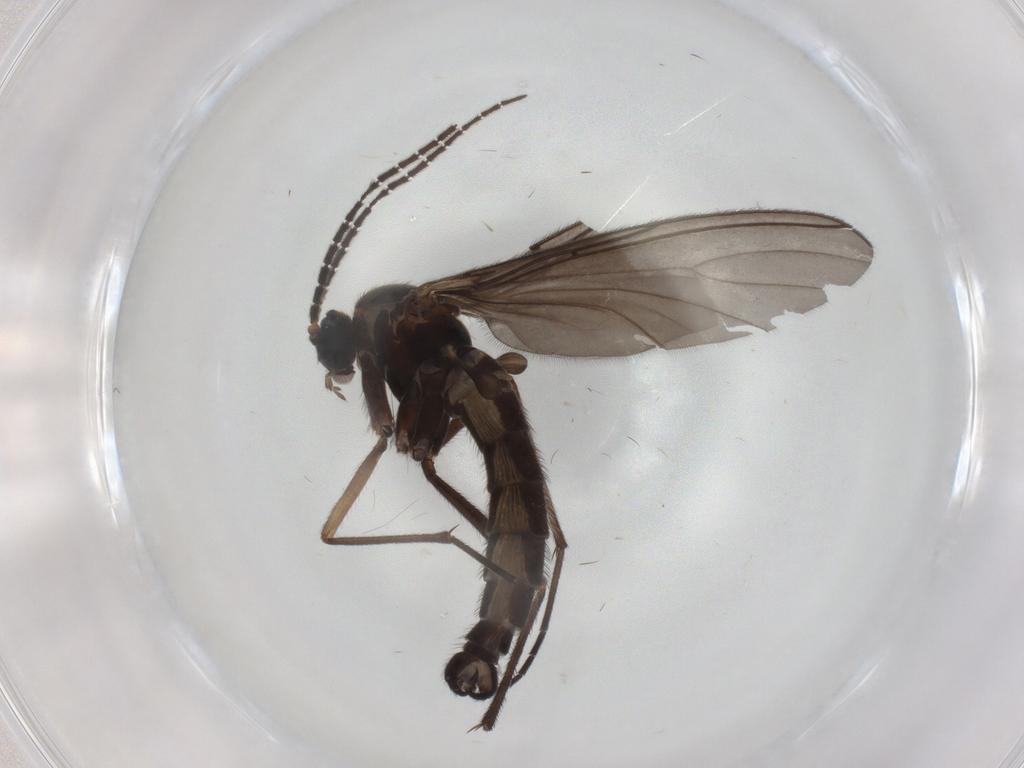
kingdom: Animalia
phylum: Arthropoda
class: Insecta
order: Diptera
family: Sciaridae
